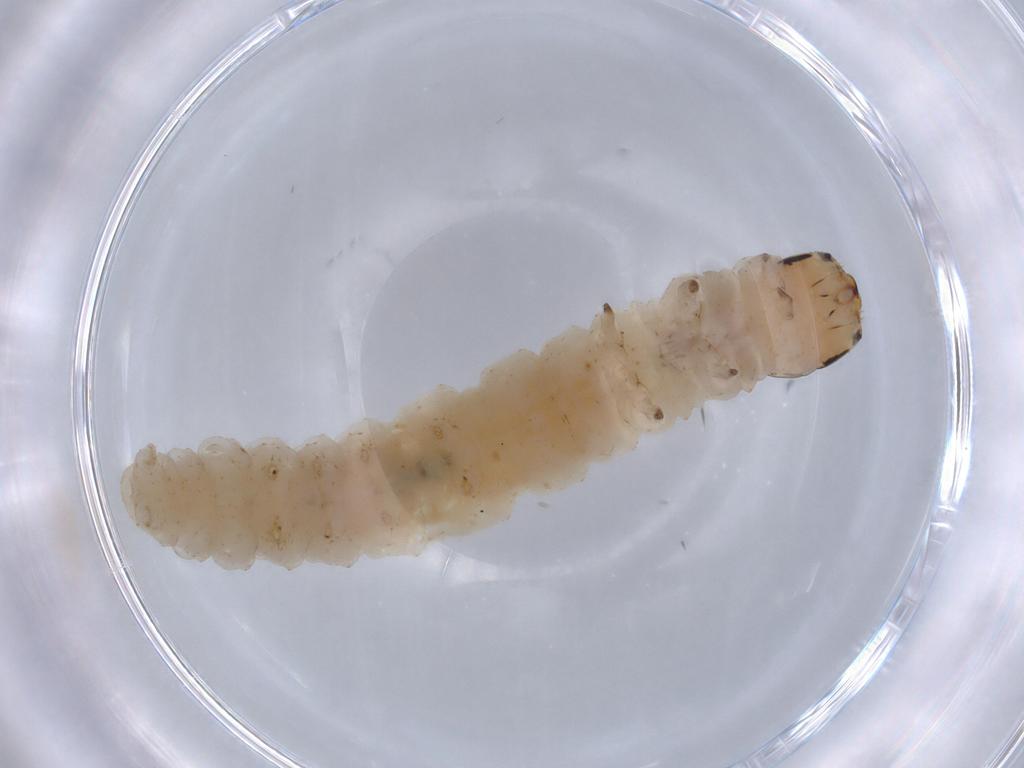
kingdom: Animalia
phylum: Arthropoda
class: Insecta
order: Lepidoptera
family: Tortricidae
